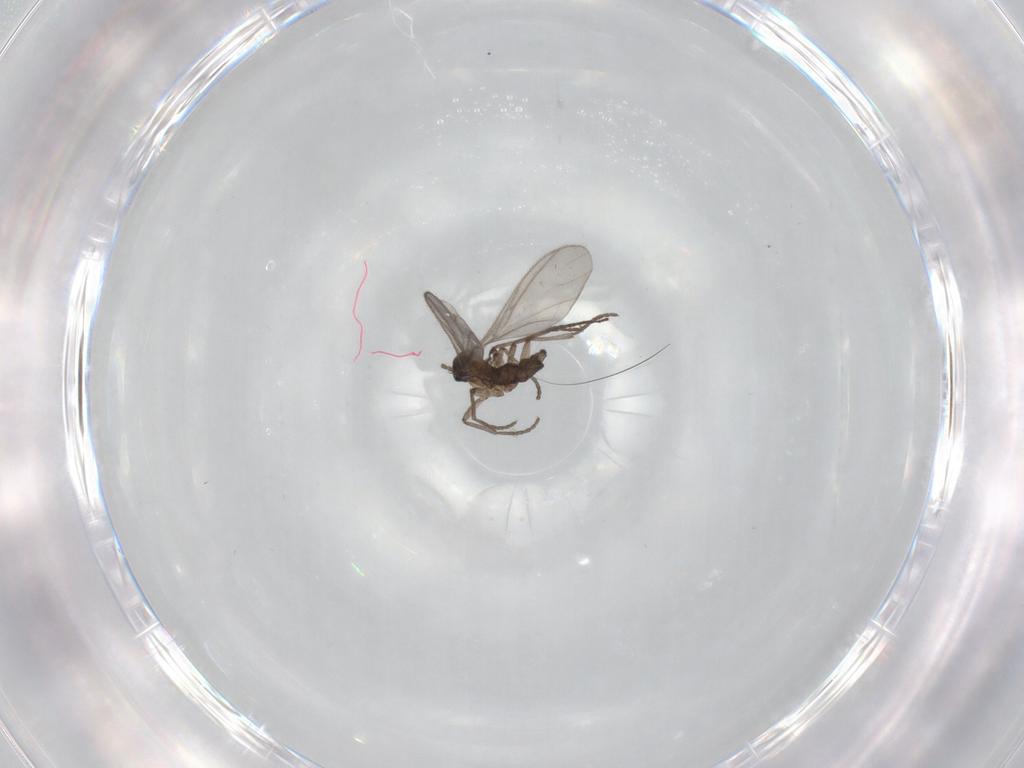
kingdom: Animalia
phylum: Arthropoda
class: Insecta
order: Diptera
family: Sciaridae
